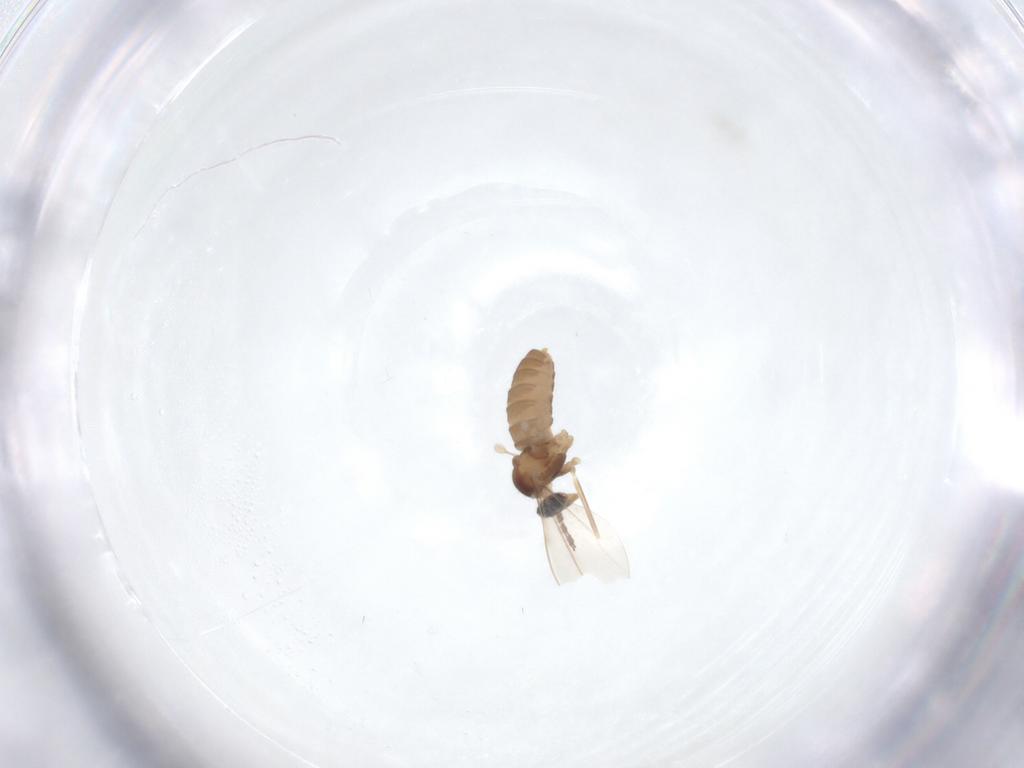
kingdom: Animalia
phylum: Arthropoda
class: Insecta
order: Diptera
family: Cecidomyiidae
